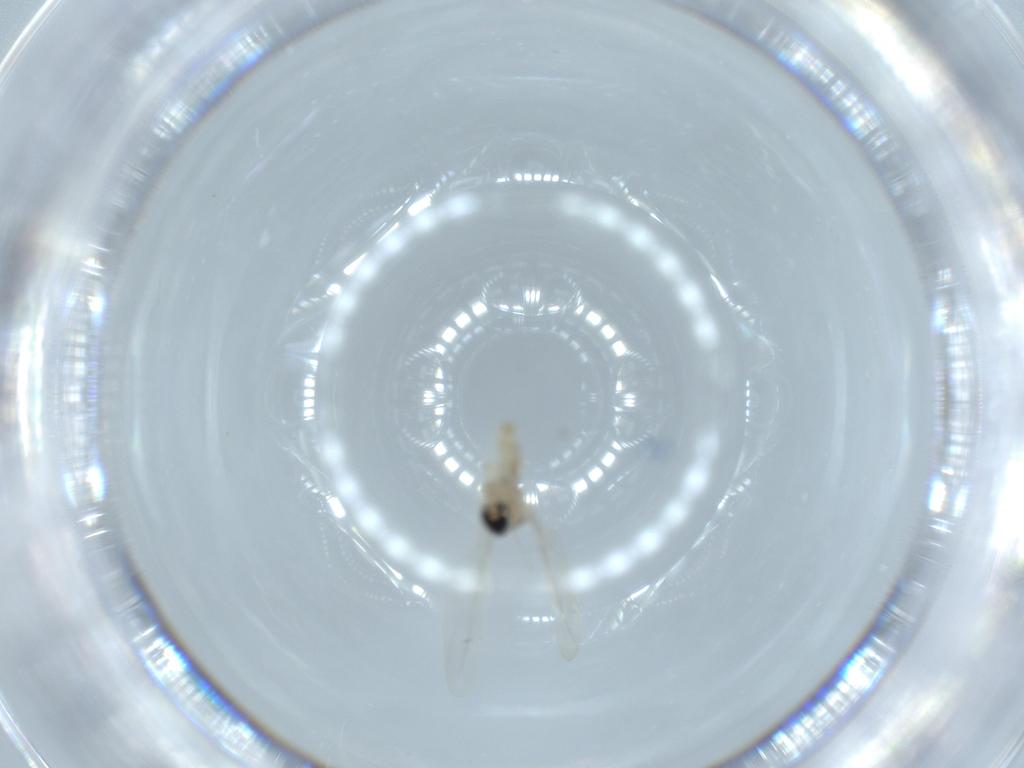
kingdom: Animalia
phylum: Arthropoda
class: Insecta
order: Diptera
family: Cecidomyiidae
